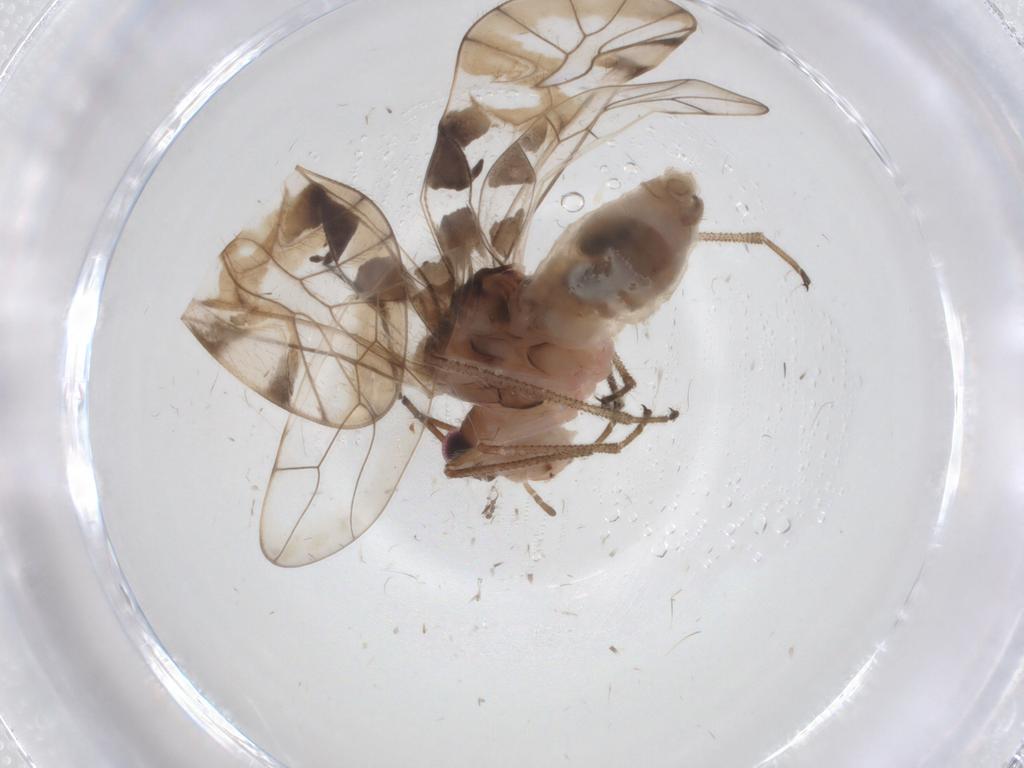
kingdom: Animalia
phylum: Arthropoda
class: Insecta
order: Psocodea
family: Amphipsocidae
